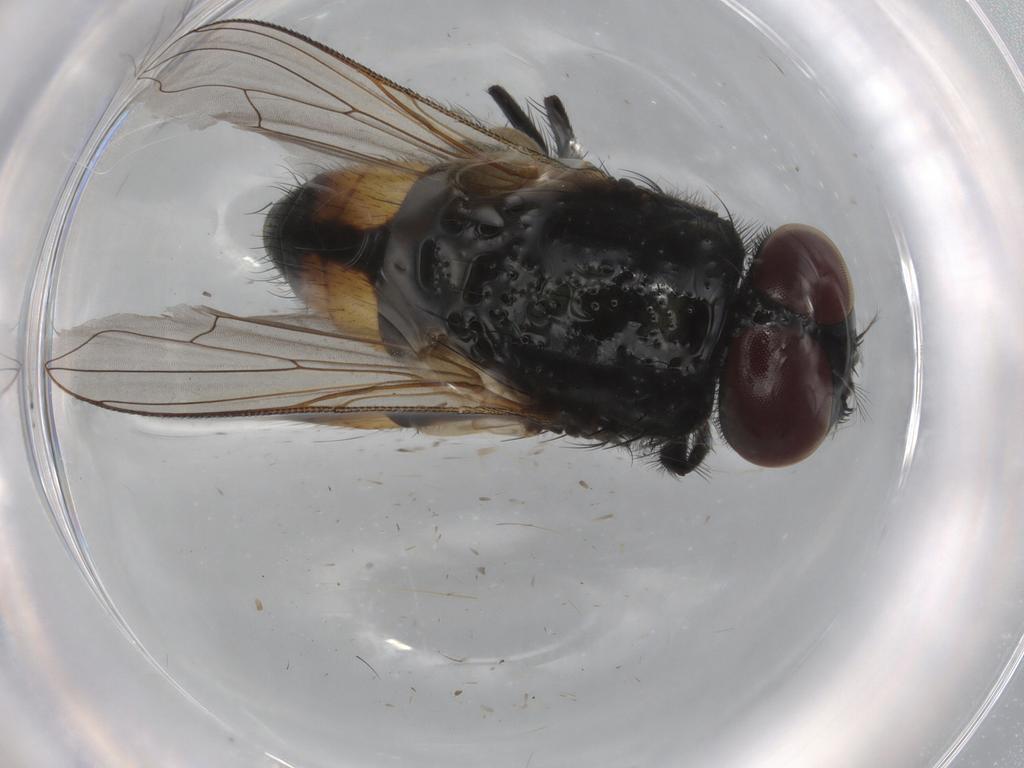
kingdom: Animalia
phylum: Arthropoda
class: Insecta
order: Diptera
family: Muscidae
